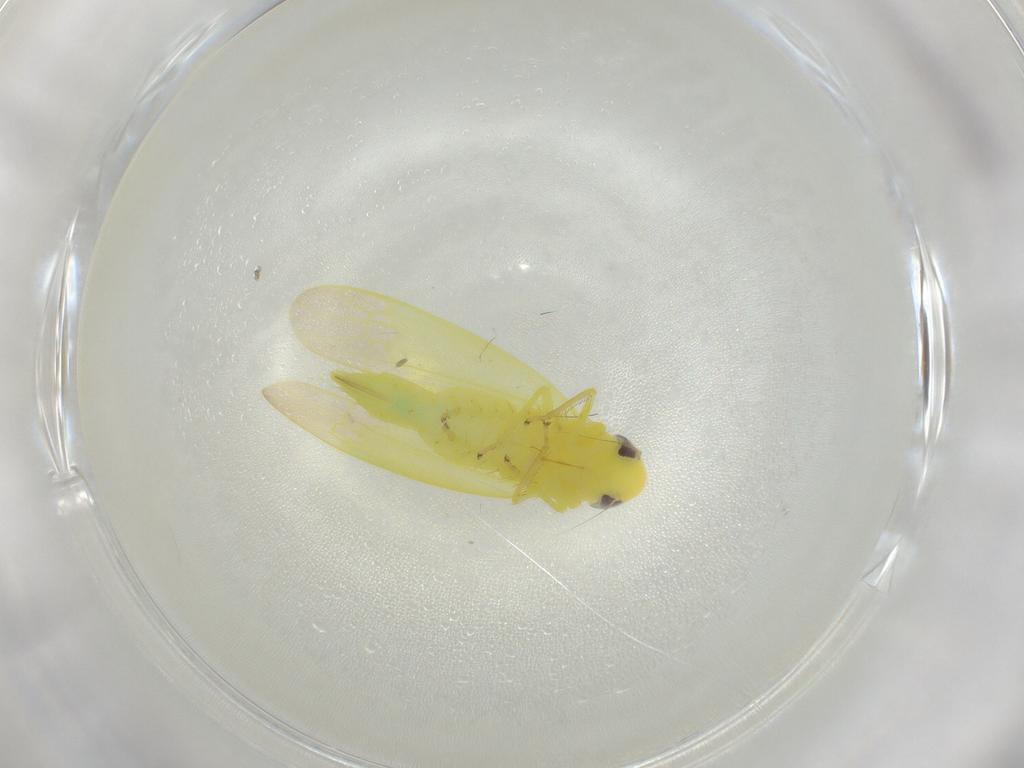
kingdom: Animalia
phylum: Arthropoda
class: Insecta
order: Hemiptera
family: Cicadellidae
